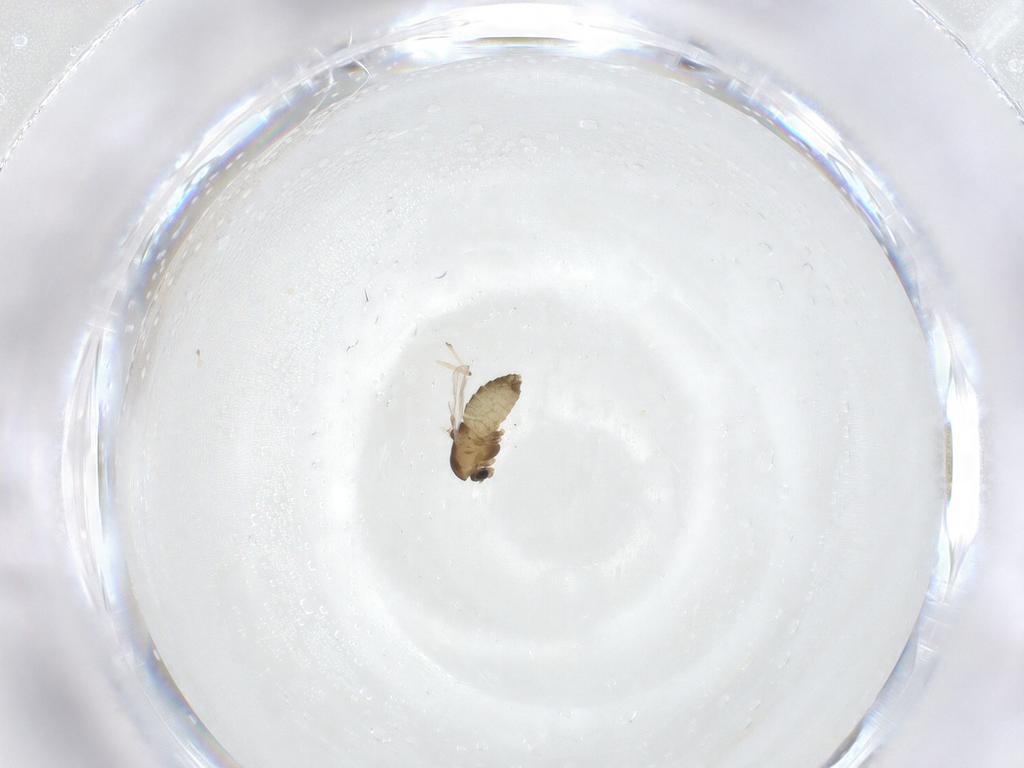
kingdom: Animalia
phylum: Arthropoda
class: Insecta
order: Diptera
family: Chironomidae
